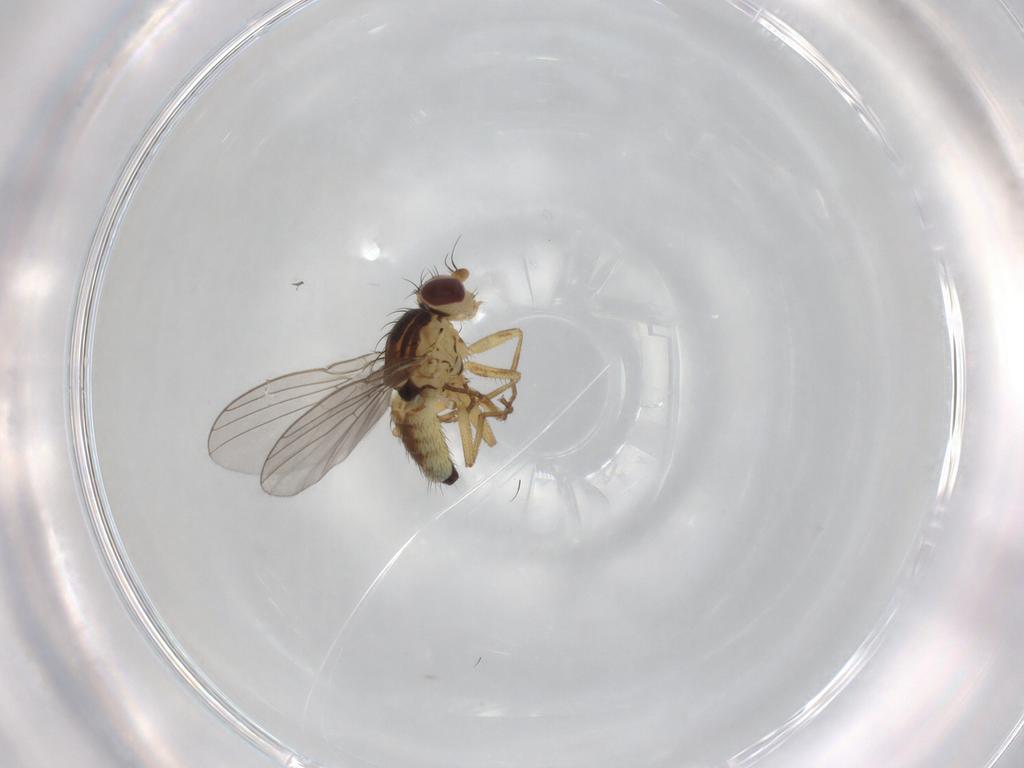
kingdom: Animalia
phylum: Arthropoda
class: Insecta
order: Diptera
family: Agromyzidae
